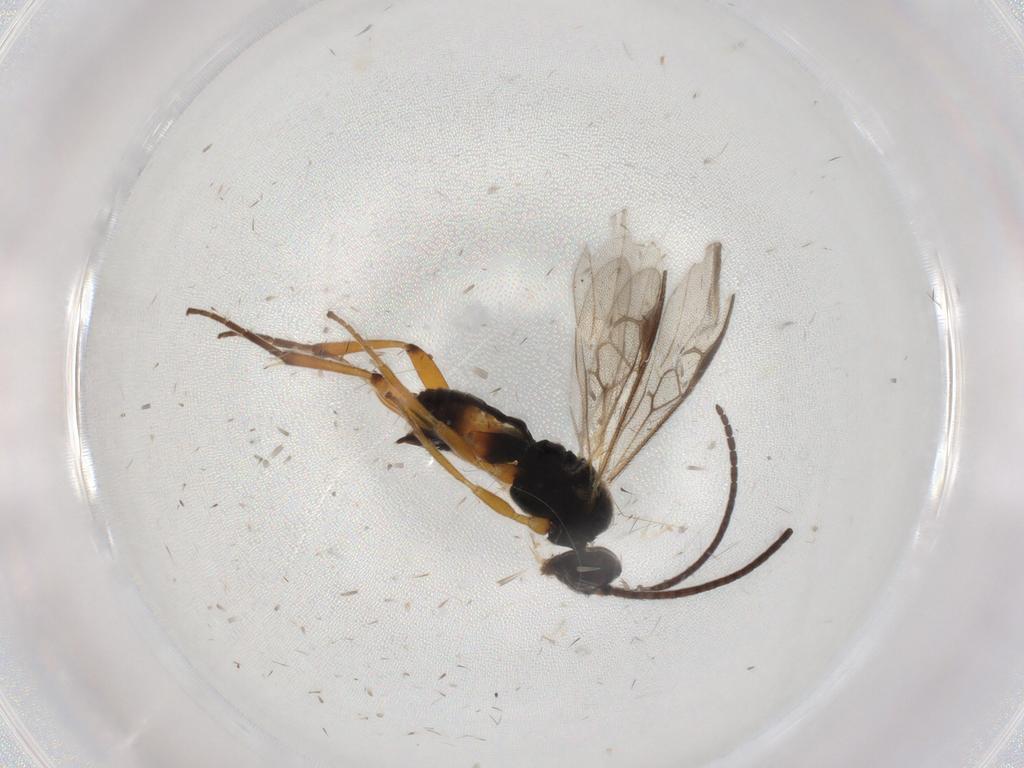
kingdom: Animalia
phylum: Arthropoda
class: Insecta
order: Hymenoptera
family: Braconidae
